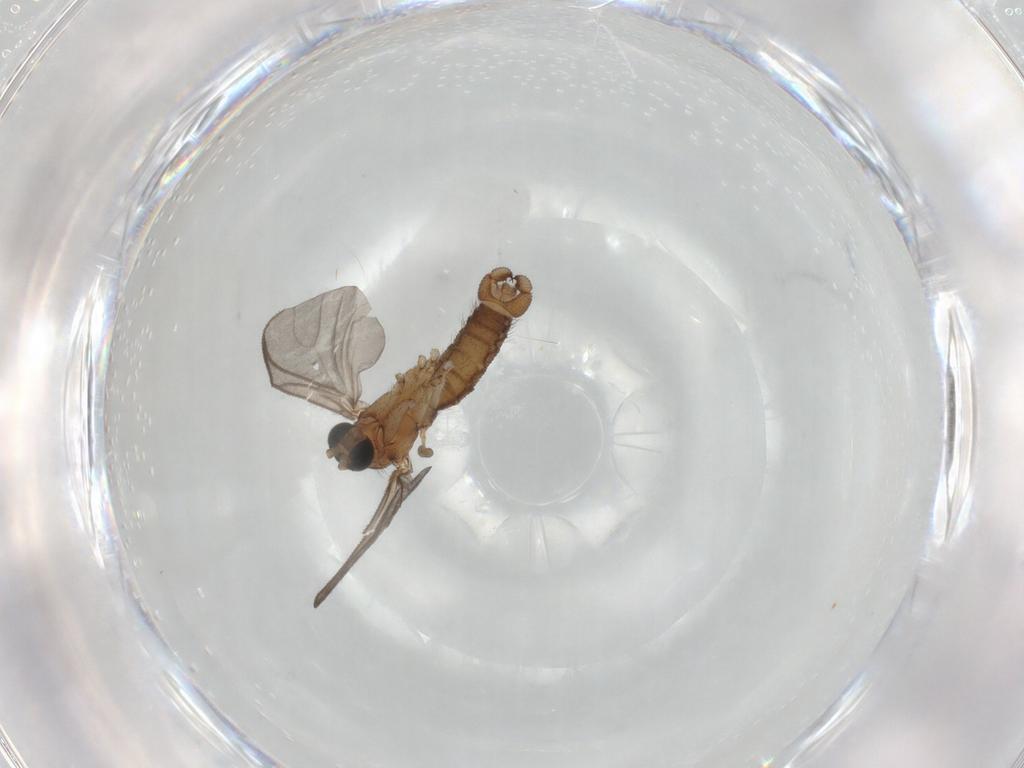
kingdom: Animalia
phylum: Arthropoda
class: Insecta
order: Diptera
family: Sciaridae
